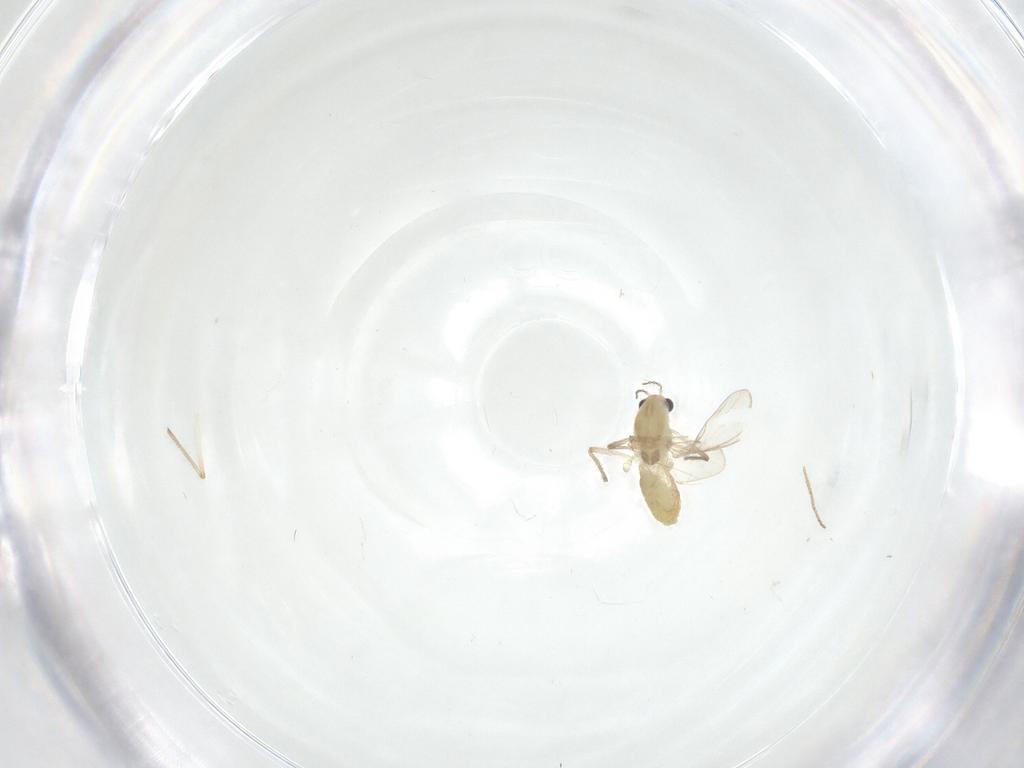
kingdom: Animalia
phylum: Arthropoda
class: Insecta
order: Diptera
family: Chironomidae
